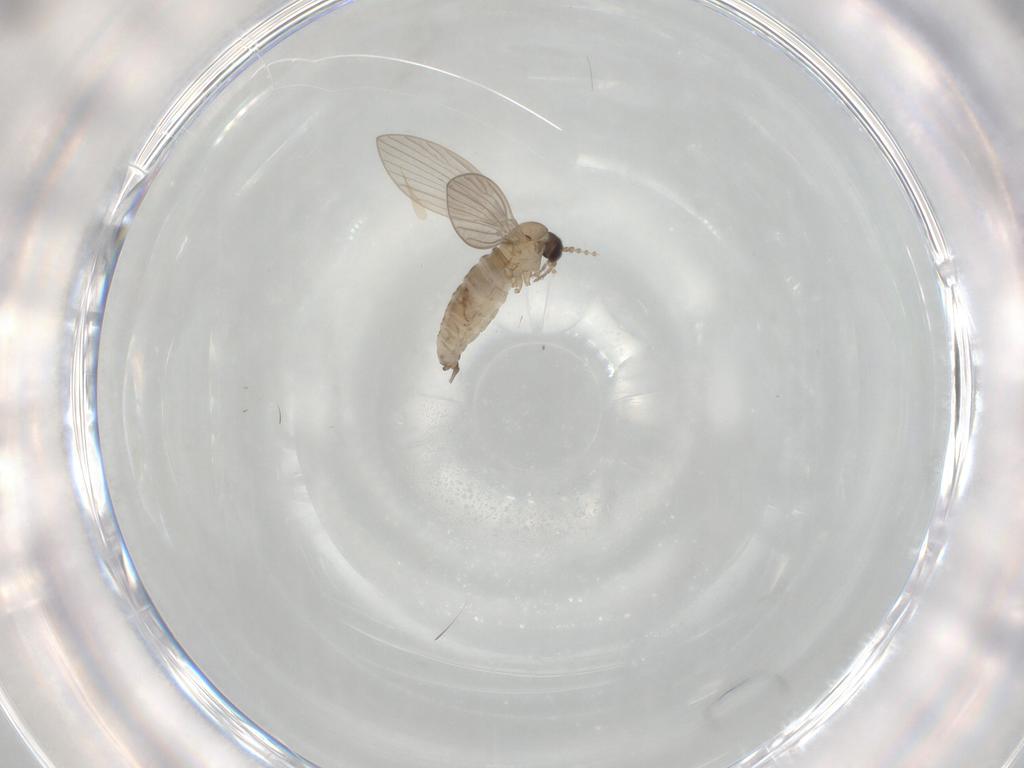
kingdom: Animalia
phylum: Arthropoda
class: Insecta
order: Diptera
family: Psychodidae
